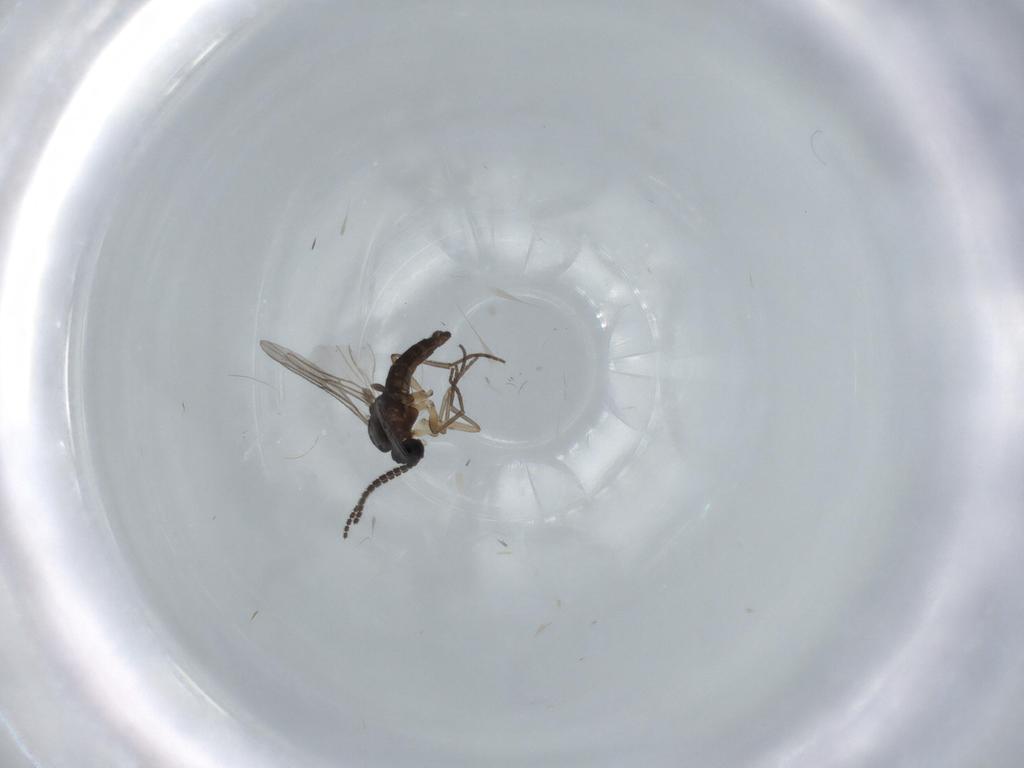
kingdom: Animalia
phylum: Arthropoda
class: Insecta
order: Diptera
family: Sciaridae
